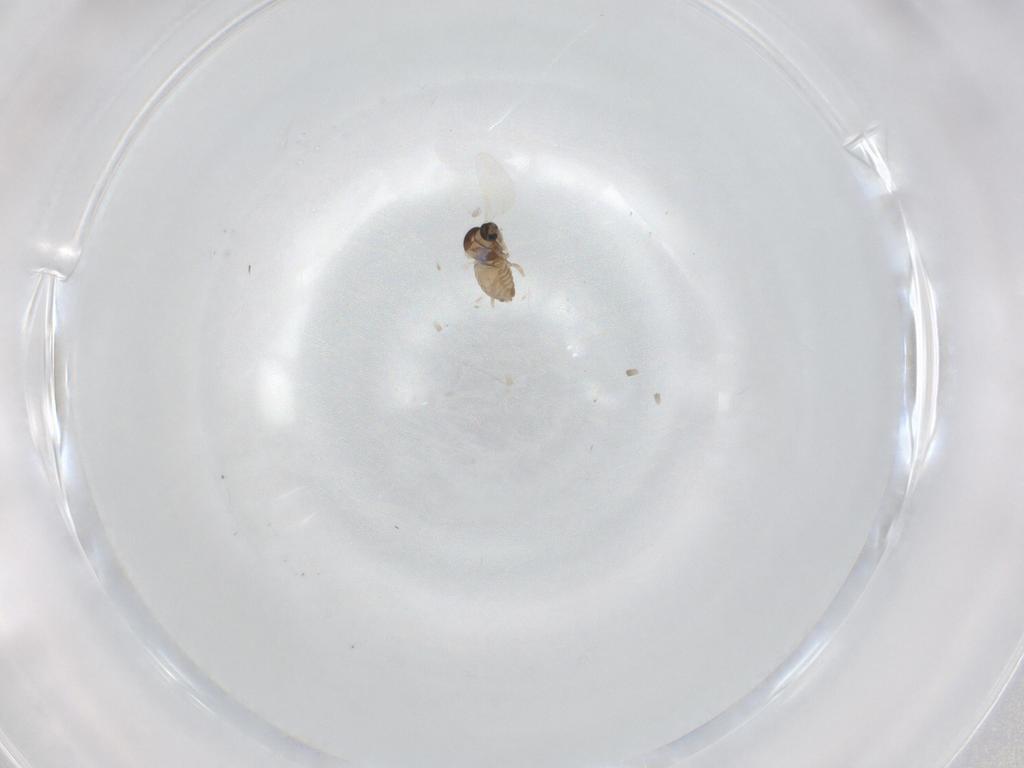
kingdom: Animalia
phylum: Arthropoda
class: Insecta
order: Diptera
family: Cecidomyiidae
